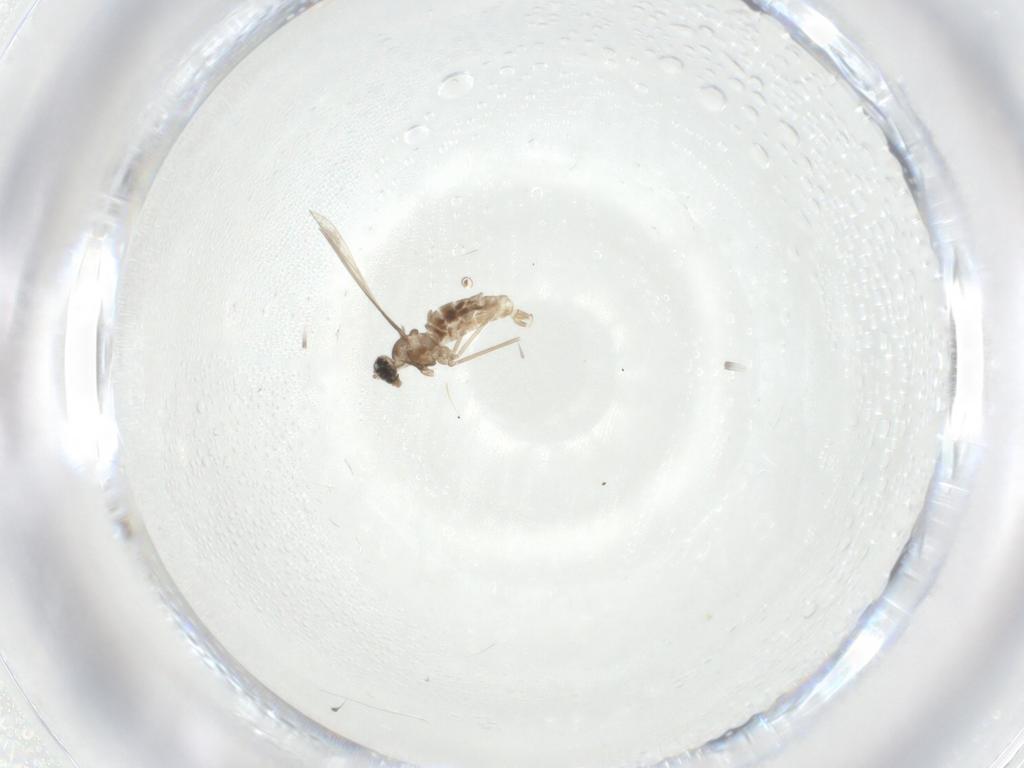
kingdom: Animalia
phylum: Arthropoda
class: Insecta
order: Diptera
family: Cecidomyiidae
